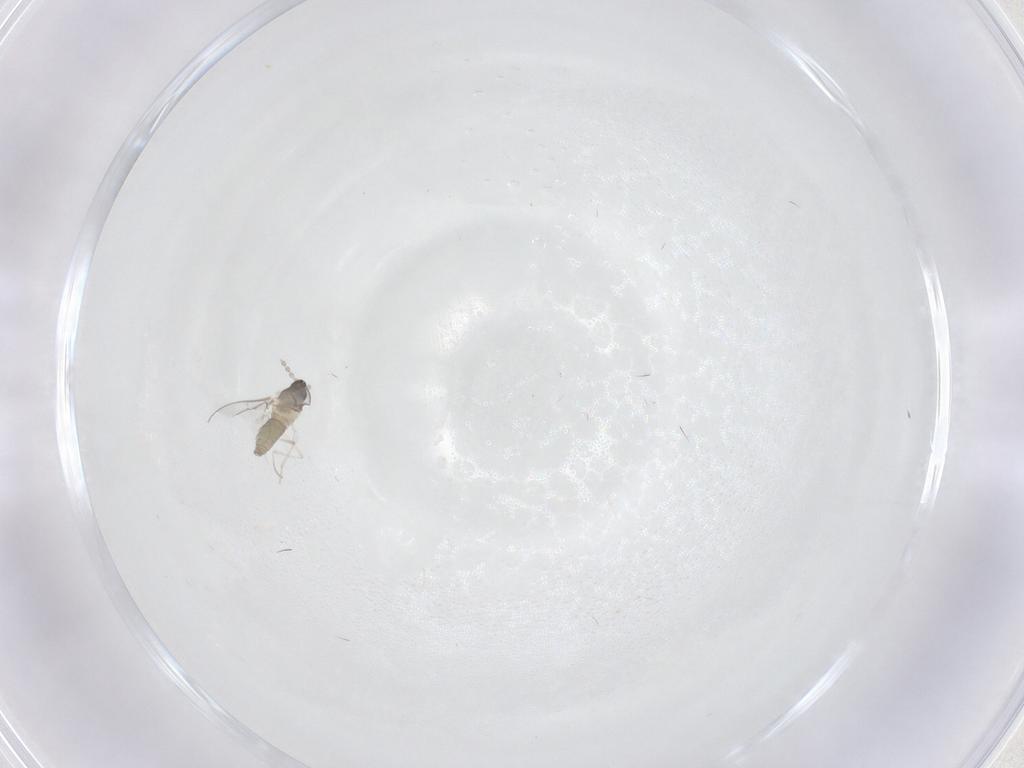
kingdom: Animalia
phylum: Arthropoda
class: Insecta
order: Diptera
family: Cecidomyiidae
